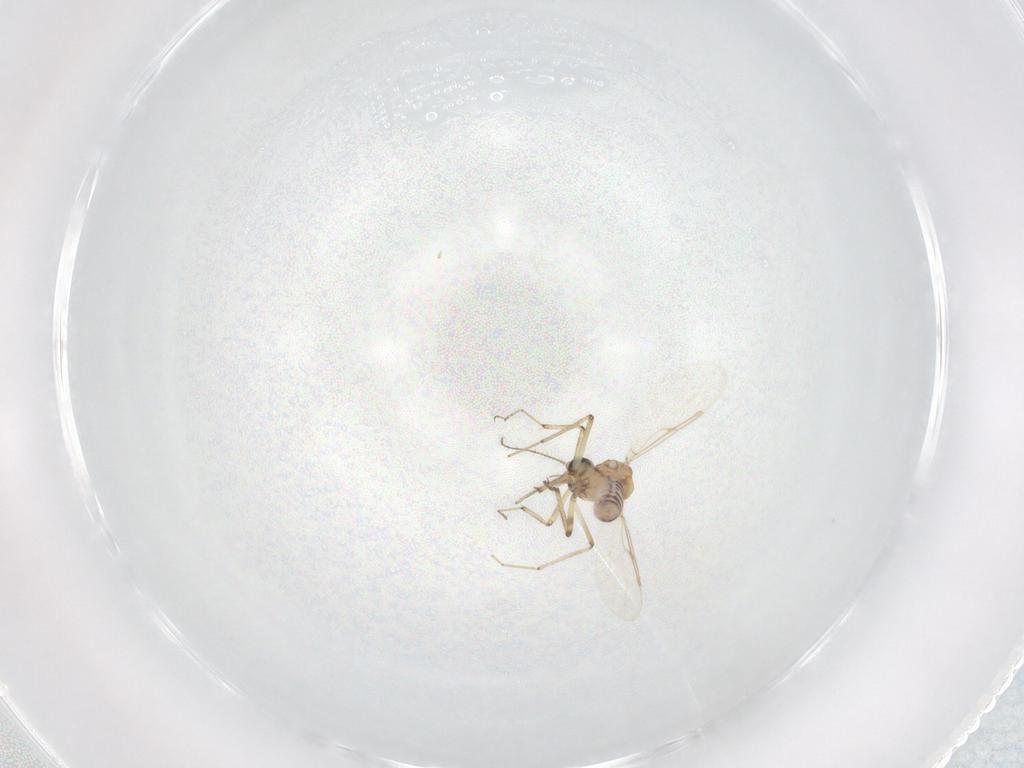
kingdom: Animalia
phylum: Arthropoda
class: Insecta
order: Diptera
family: Ceratopogonidae
